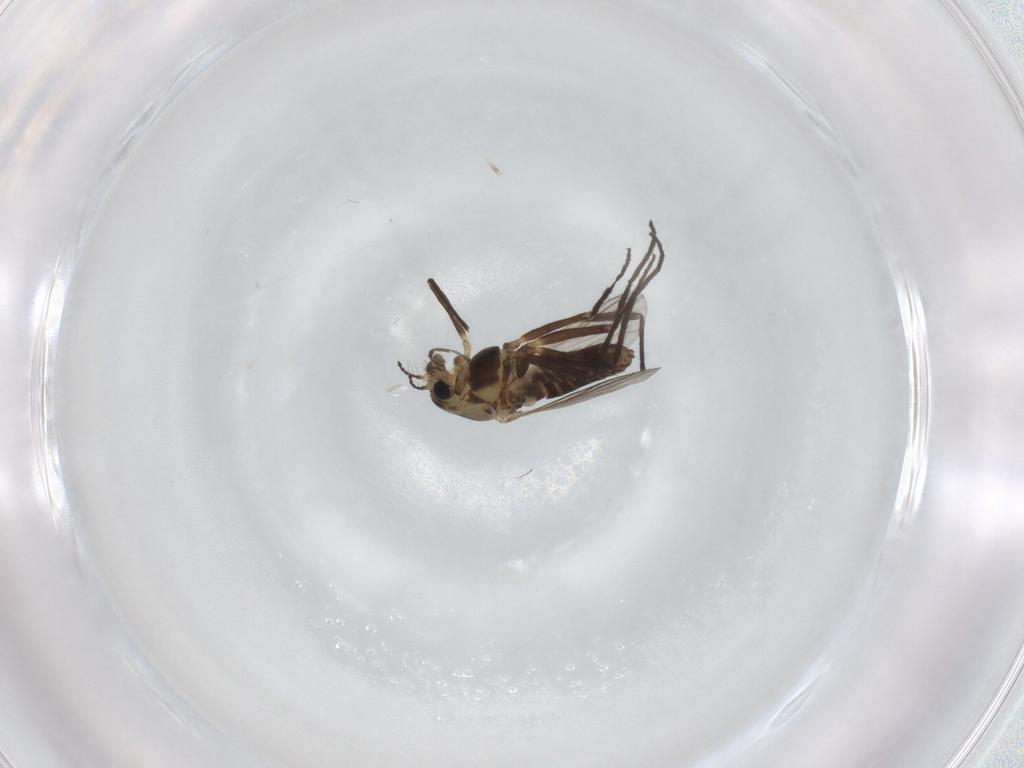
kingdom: Animalia
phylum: Arthropoda
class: Insecta
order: Diptera
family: Chironomidae
